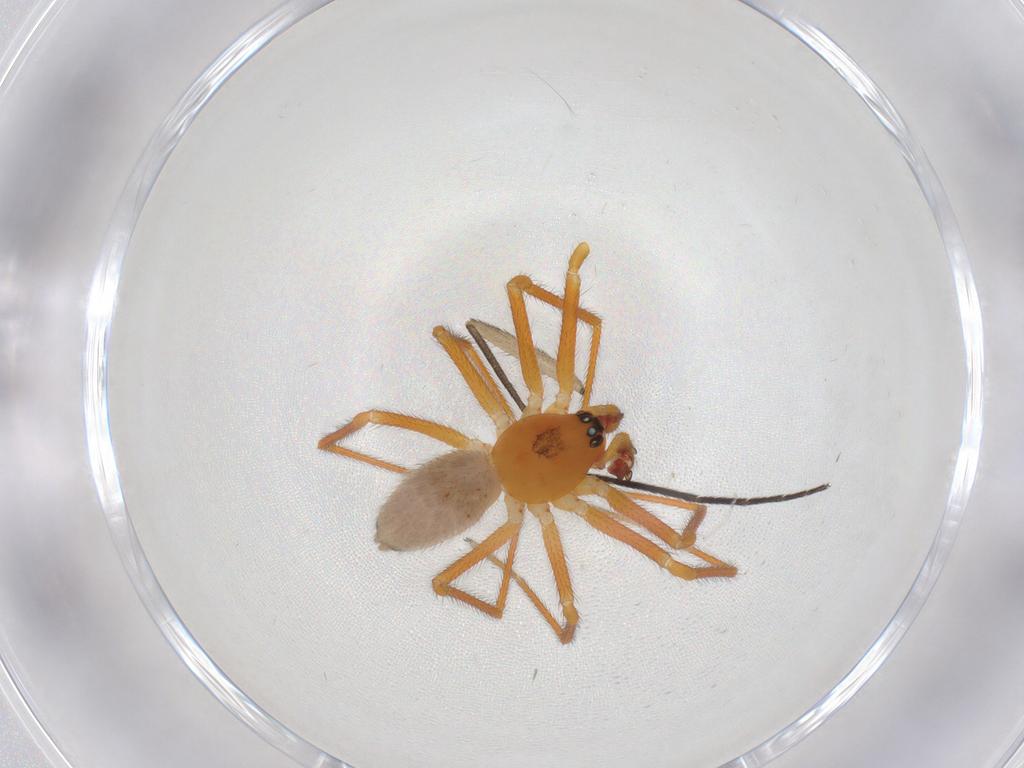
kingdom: Animalia
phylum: Arthropoda
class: Arachnida
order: Araneae
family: Linyphiidae
